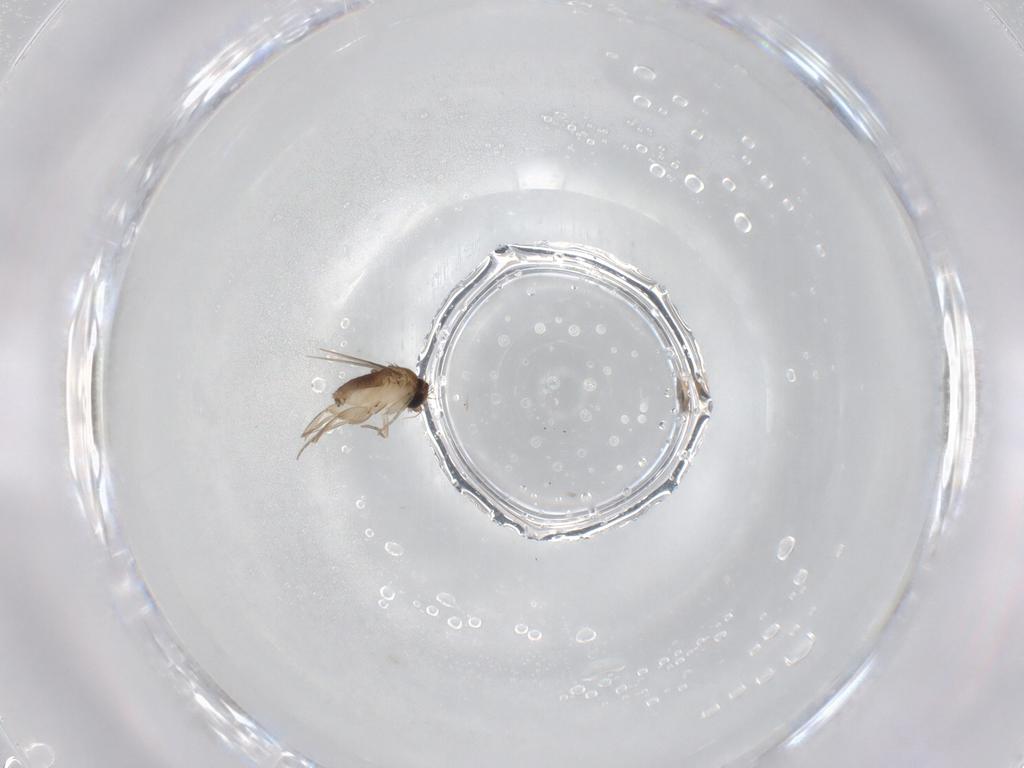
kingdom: Animalia
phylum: Arthropoda
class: Insecta
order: Diptera
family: Phoridae
